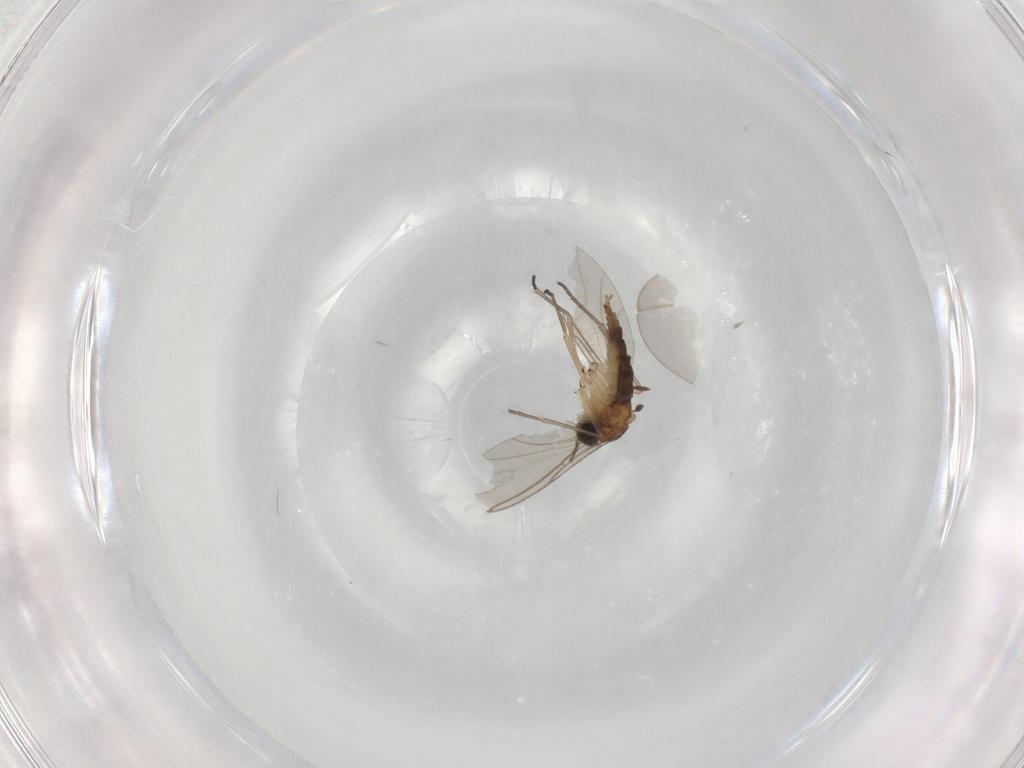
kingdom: Animalia
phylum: Arthropoda
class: Insecta
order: Diptera
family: Sciaridae
